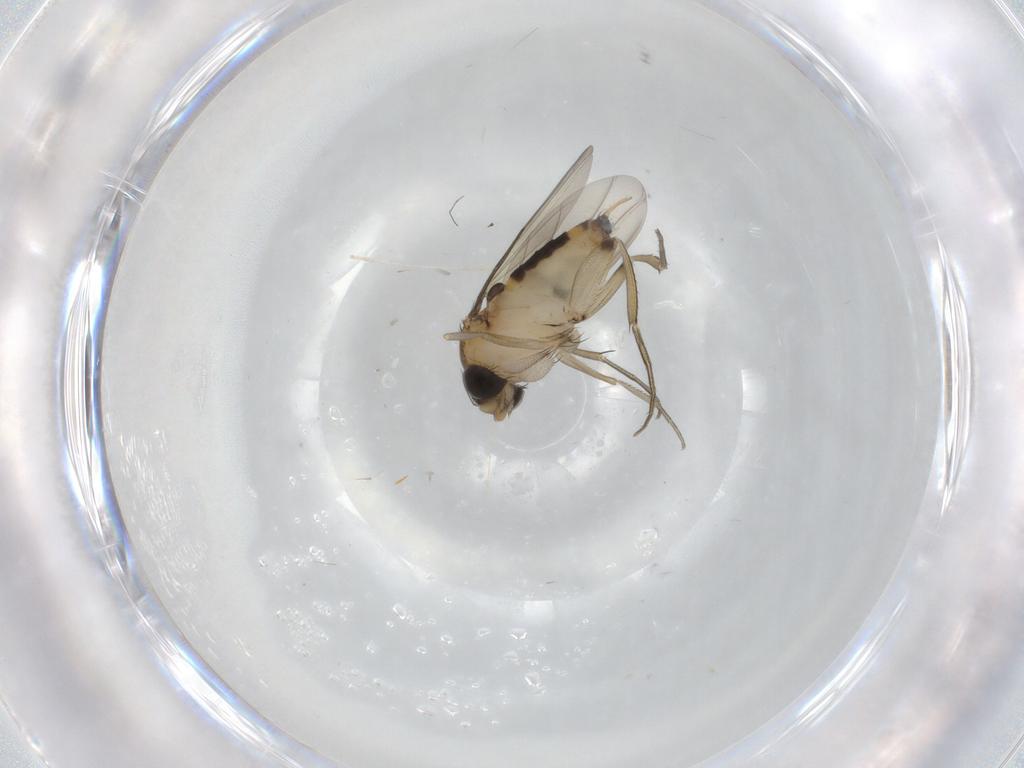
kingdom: Animalia
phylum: Arthropoda
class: Insecta
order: Diptera
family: Phoridae
